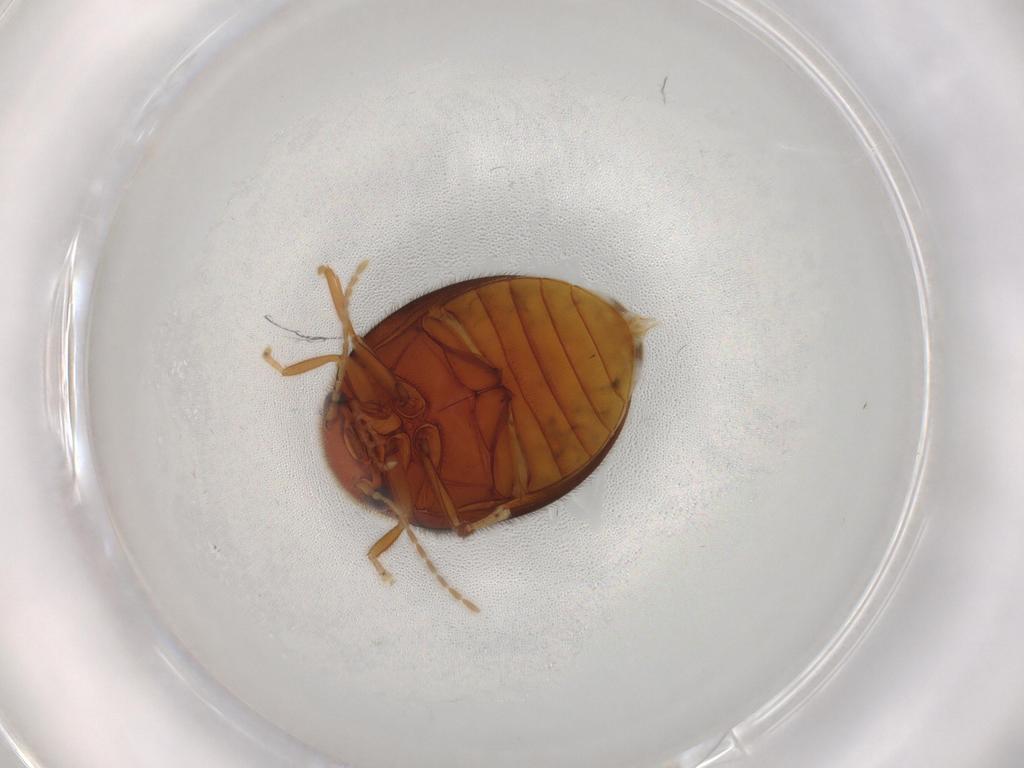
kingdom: Animalia
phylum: Arthropoda
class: Insecta
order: Coleoptera
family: Scirtidae
